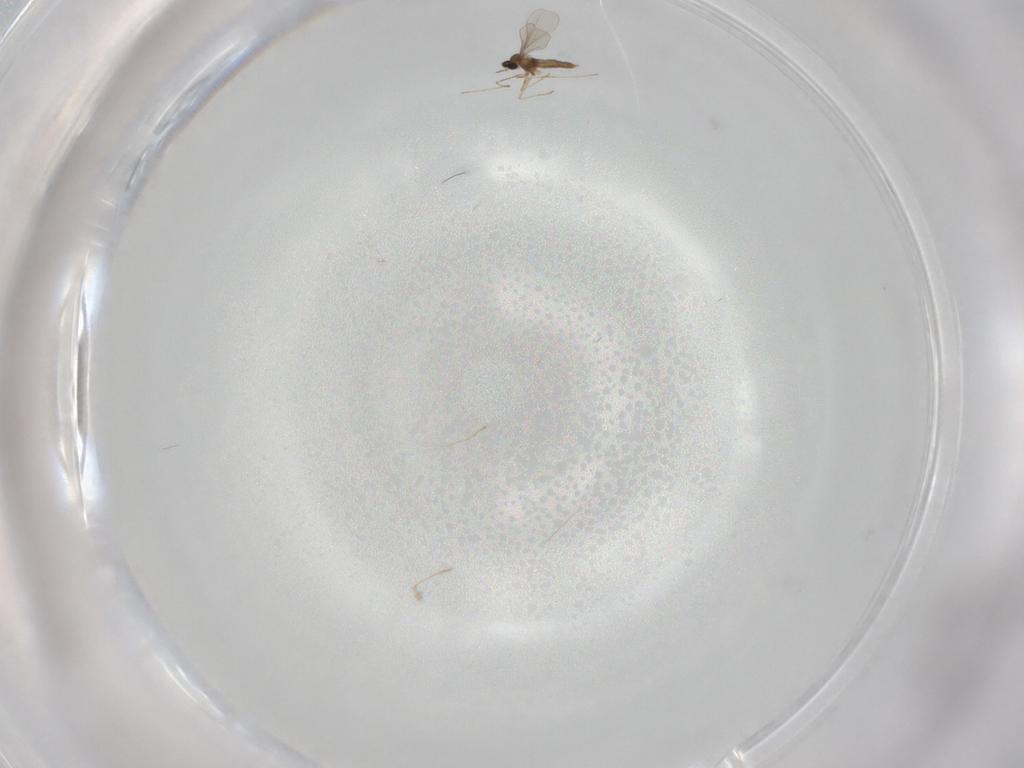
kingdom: Animalia
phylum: Arthropoda
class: Insecta
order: Diptera
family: Cecidomyiidae
